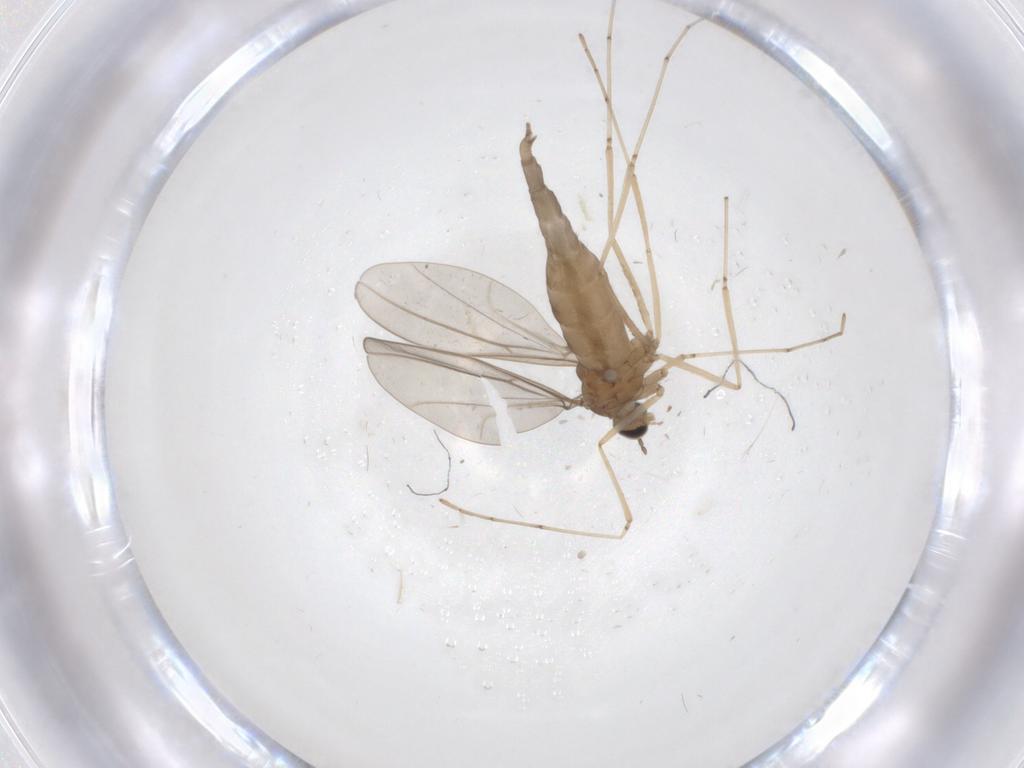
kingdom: Animalia
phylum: Arthropoda
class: Insecta
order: Diptera
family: Cecidomyiidae
